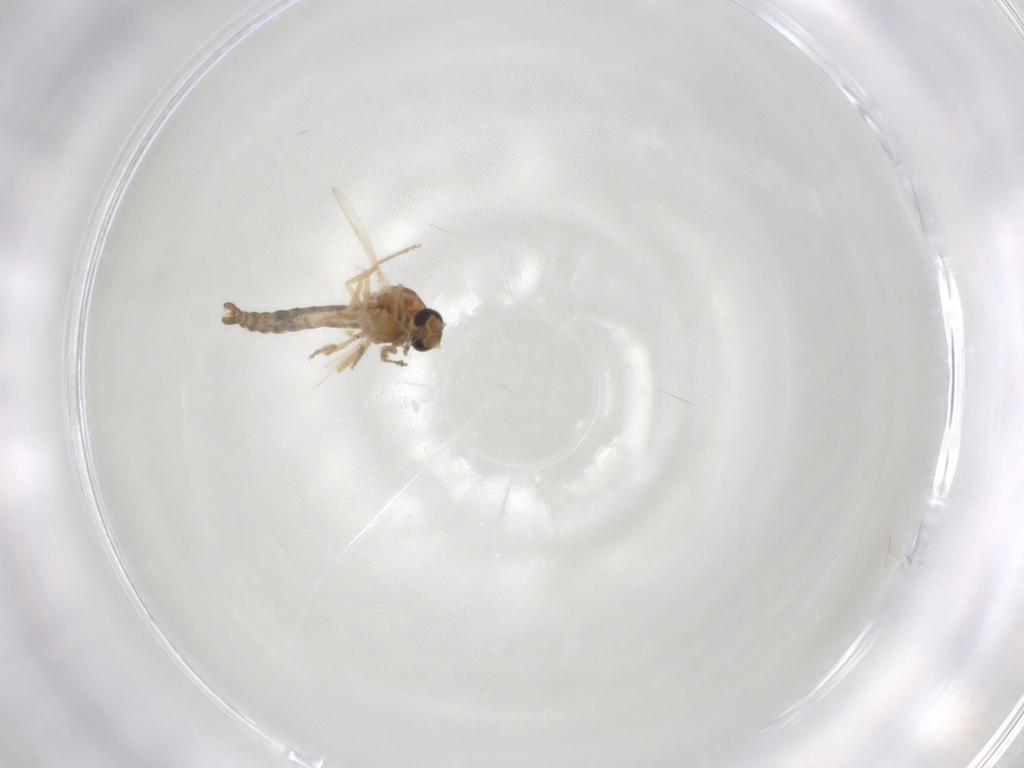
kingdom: Animalia
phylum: Arthropoda
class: Insecta
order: Diptera
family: Ceratopogonidae
